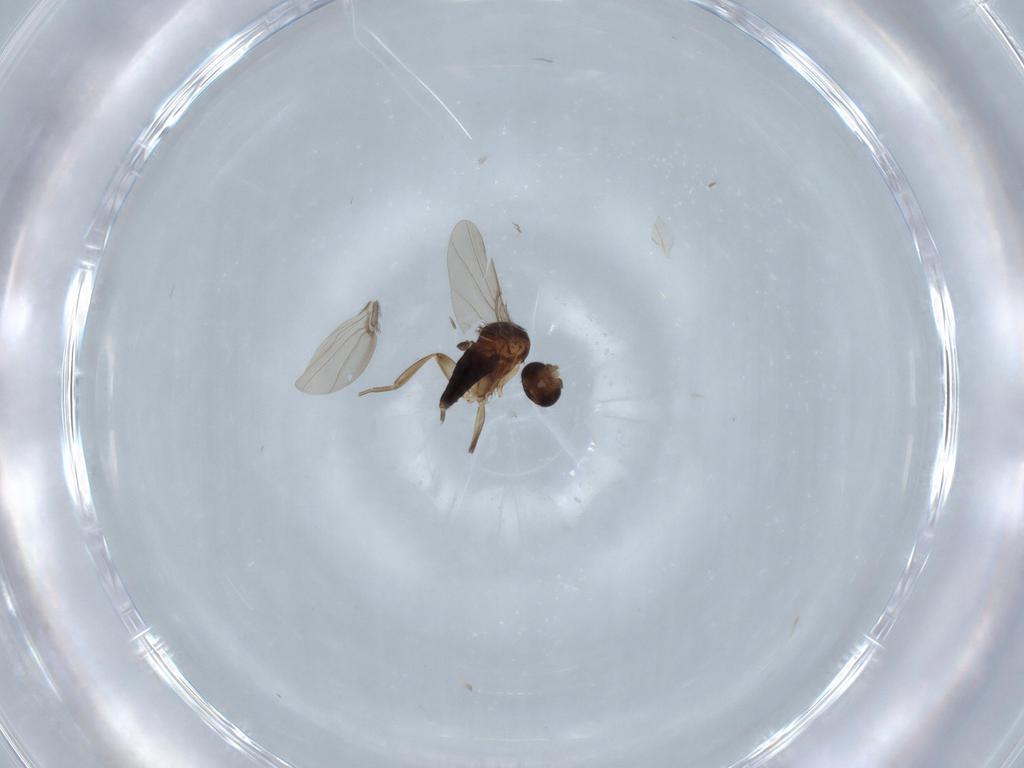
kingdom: Animalia
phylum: Arthropoda
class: Insecta
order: Diptera
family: Phoridae
